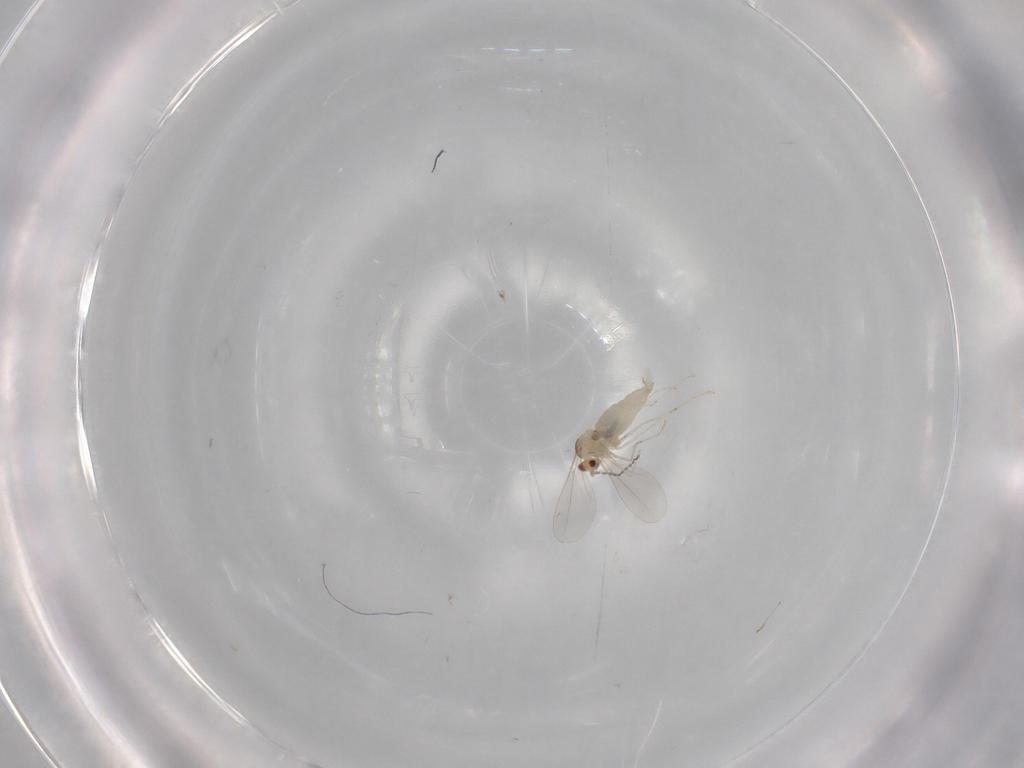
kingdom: Animalia
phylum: Arthropoda
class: Insecta
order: Diptera
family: Cecidomyiidae
